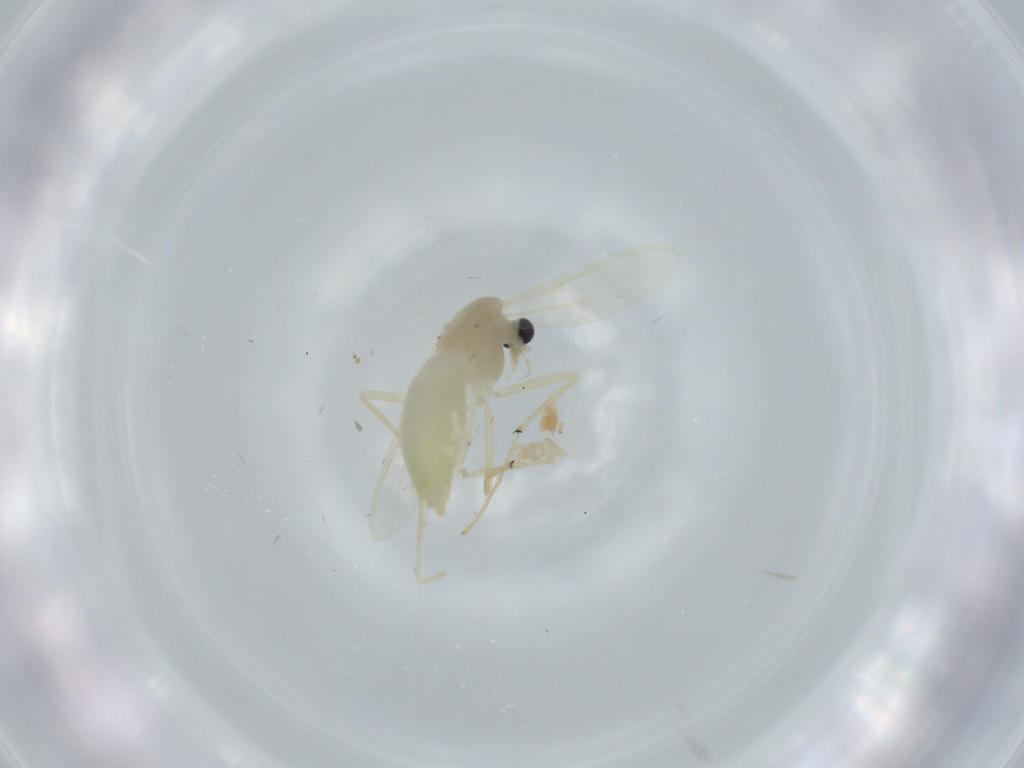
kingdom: Animalia
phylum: Arthropoda
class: Insecta
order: Diptera
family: Chironomidae
